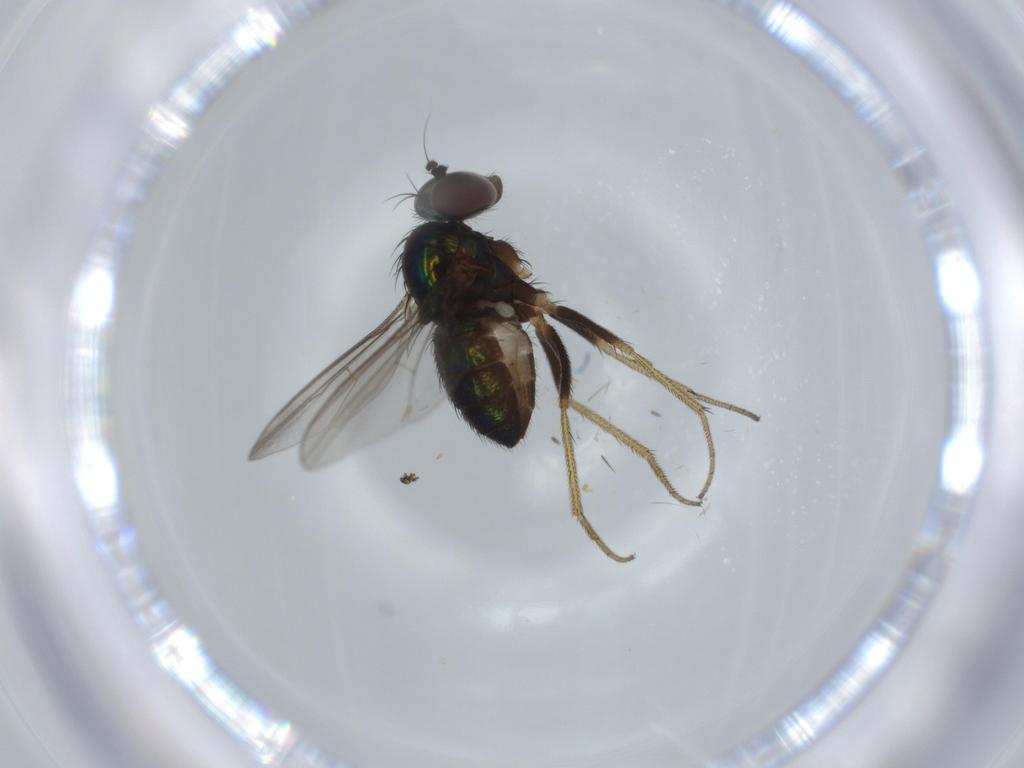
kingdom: Animalia
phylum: Arthropoda
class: Insecta
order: Diptera
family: Dolichopodidae
